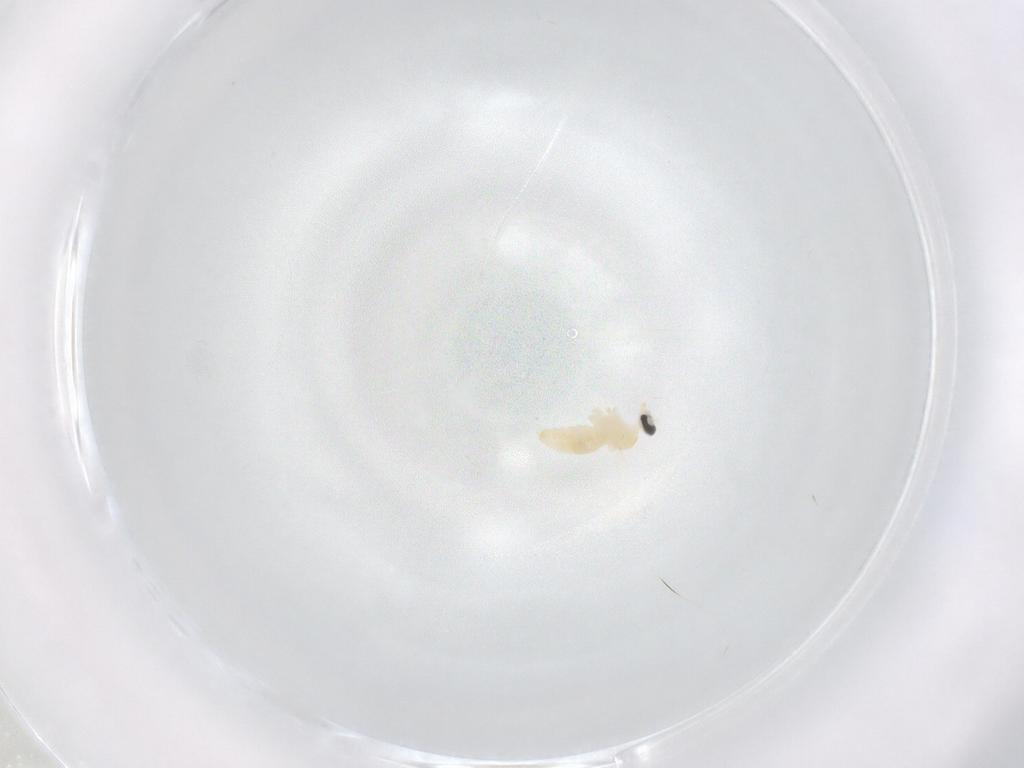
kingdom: Animalia
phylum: Arthropoda
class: Insecta
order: Diptera
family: Cecidomyiidae
